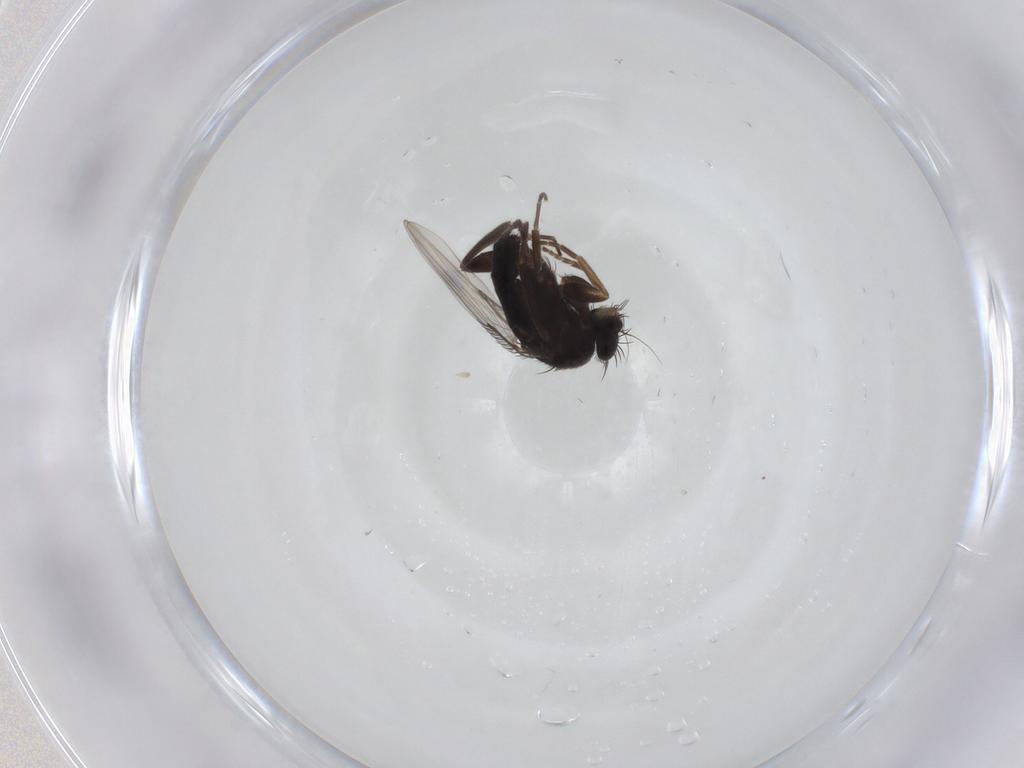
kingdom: Animalia
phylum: Arthropoda
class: Insecta
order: Diptera
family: Phoridae
